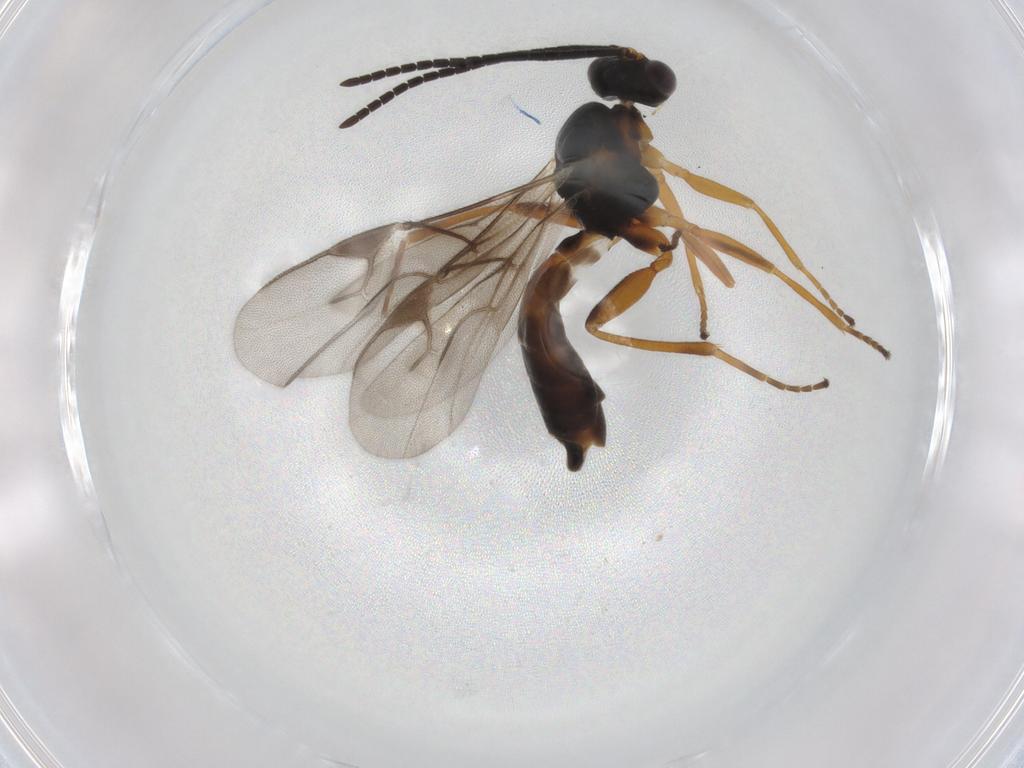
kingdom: Animalia
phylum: Arthropoda
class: Insecta
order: Hymenoptera
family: Braconidae
